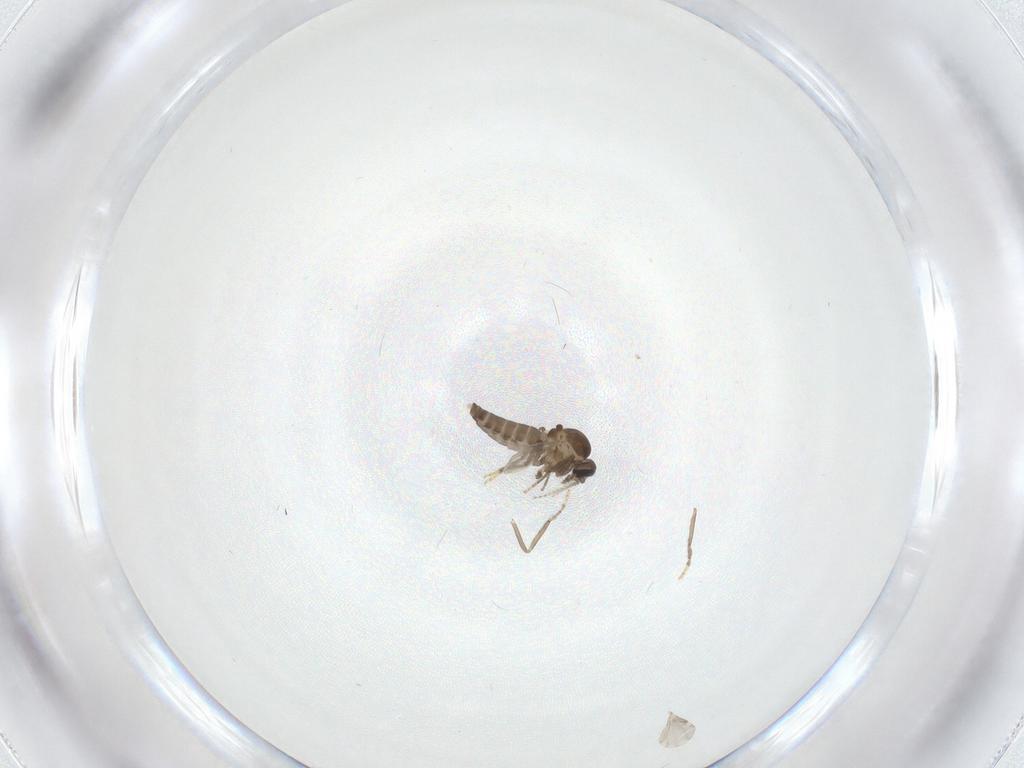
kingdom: Animalia
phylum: Arthropoda
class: Insecta
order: Diptera
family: Ceratopogonidae
